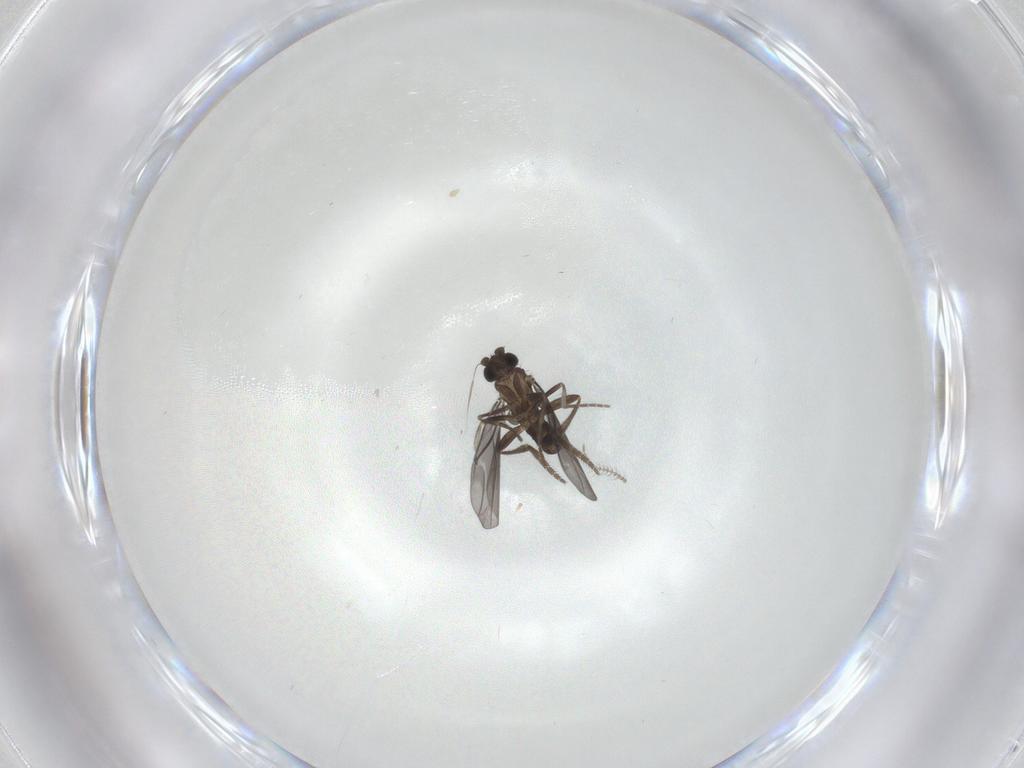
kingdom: Animalia
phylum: Arthropoda
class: Insecta
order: Diptera
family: Phoridae
